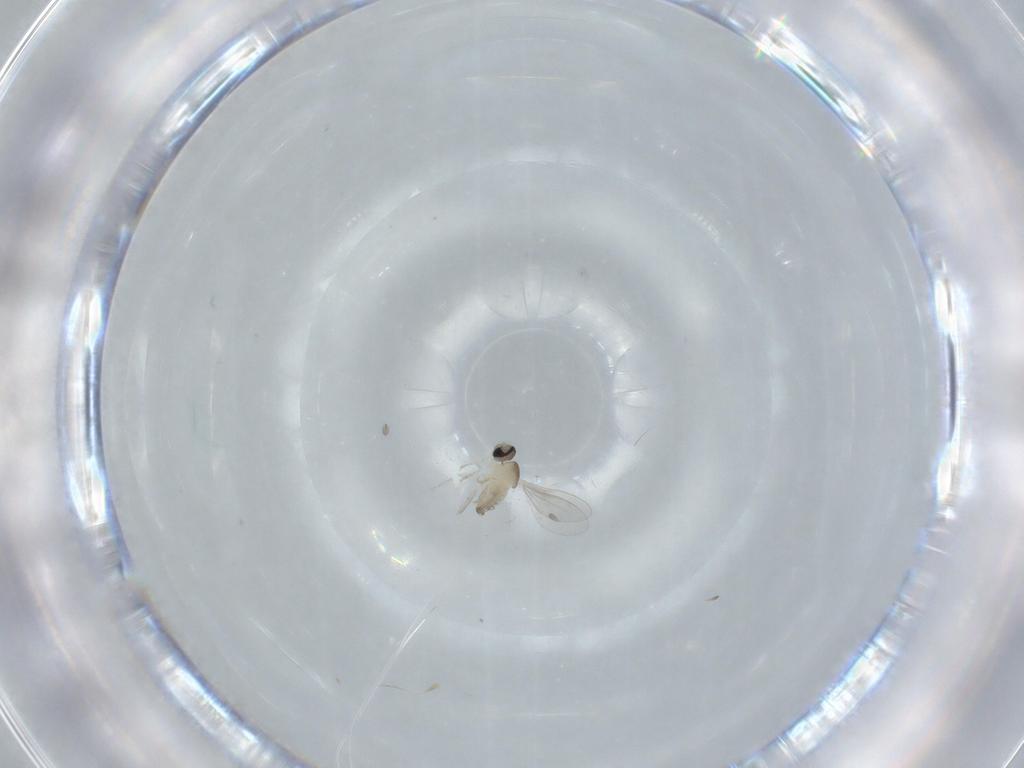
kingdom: Animalia
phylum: Arthropoda
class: Insecta
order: Diptera
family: Cecidomyiidae
